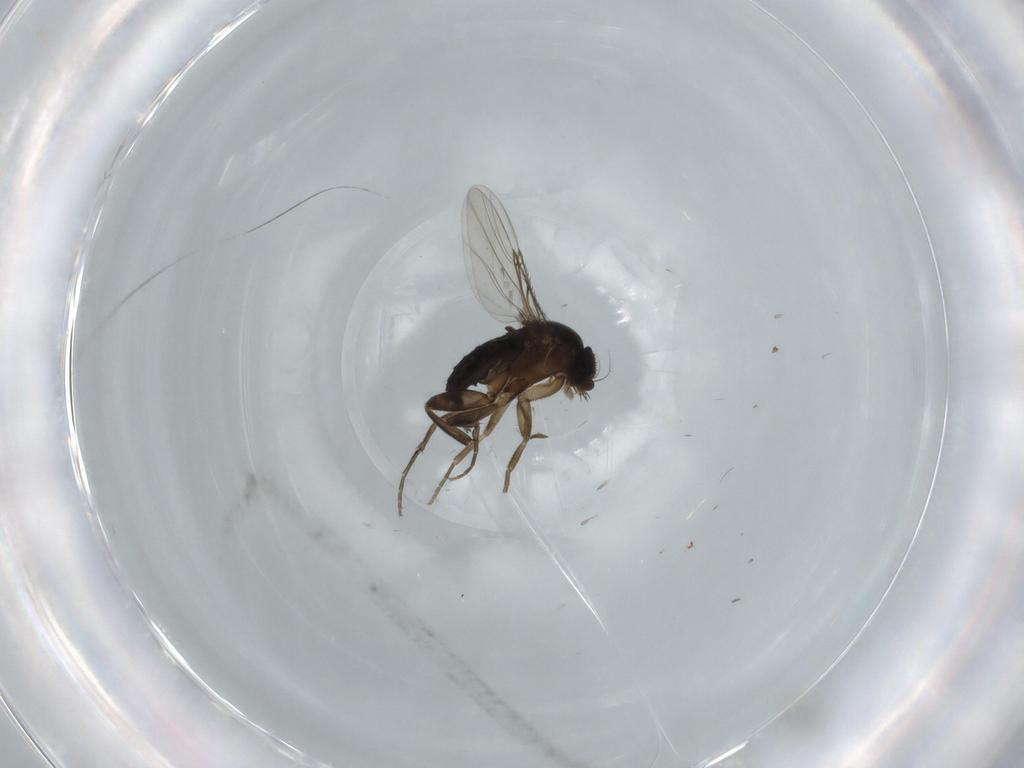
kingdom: Animalia
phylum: Arthropoda
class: Insecta
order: Diptera
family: Phoridae
